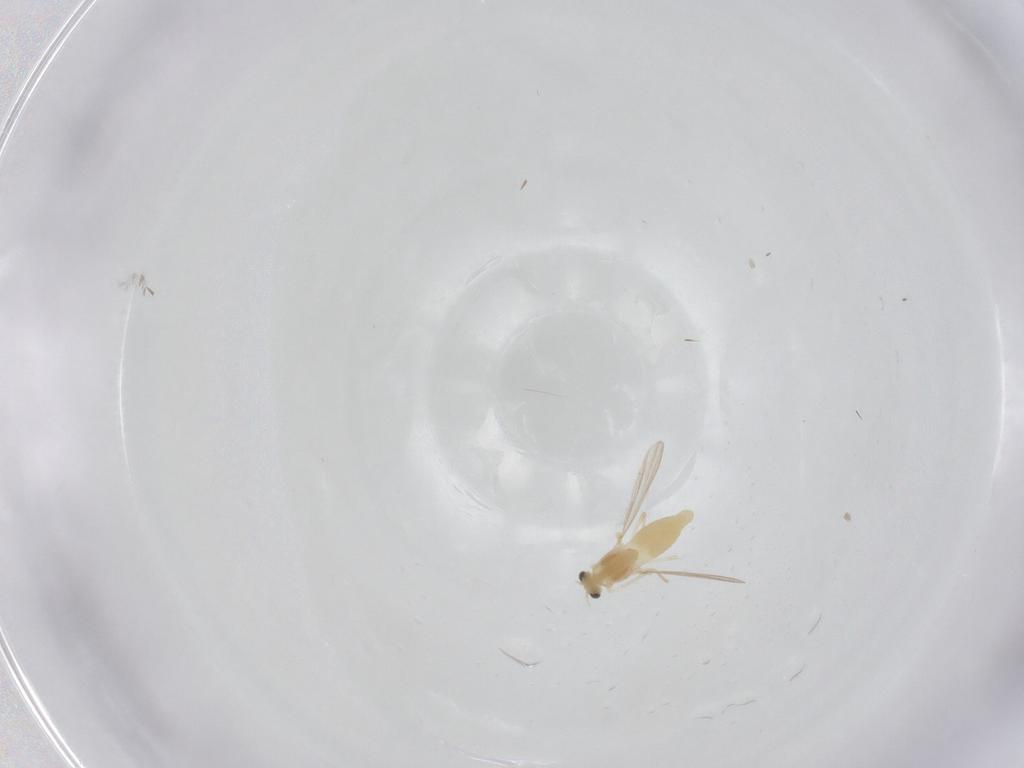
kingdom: Animalia
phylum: Arthropoda
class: Insecta
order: Diptera
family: Chironomidae
